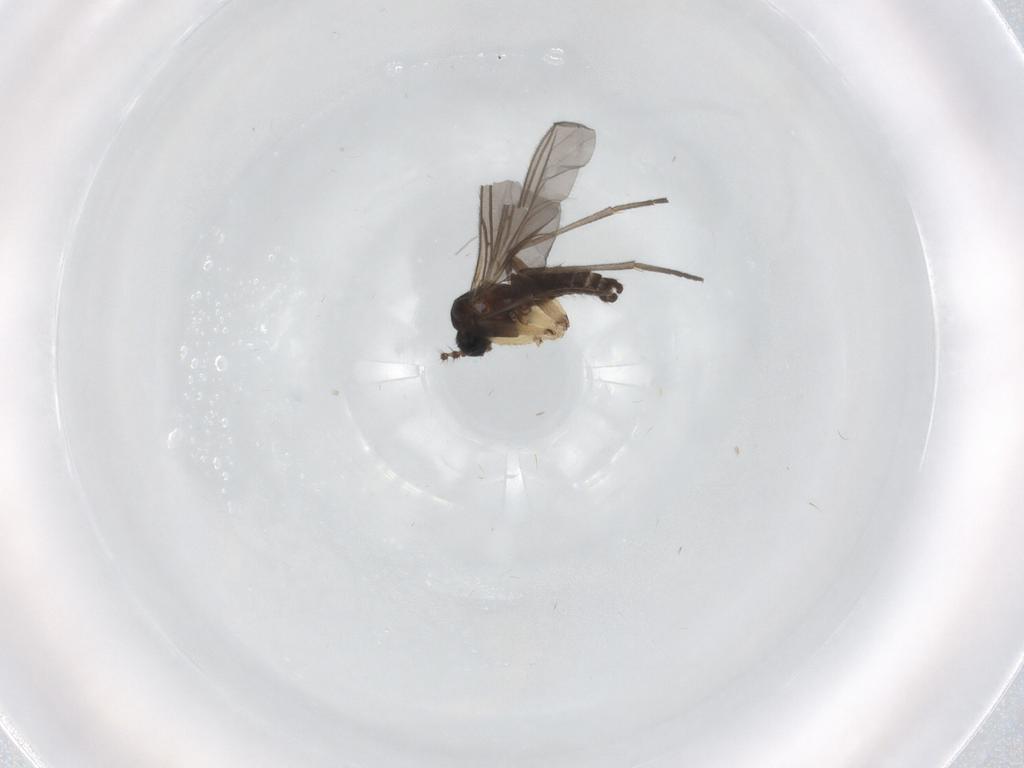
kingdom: Animalia
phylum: Arthropoda
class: Insecta
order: Diptera
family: Sciaridae
